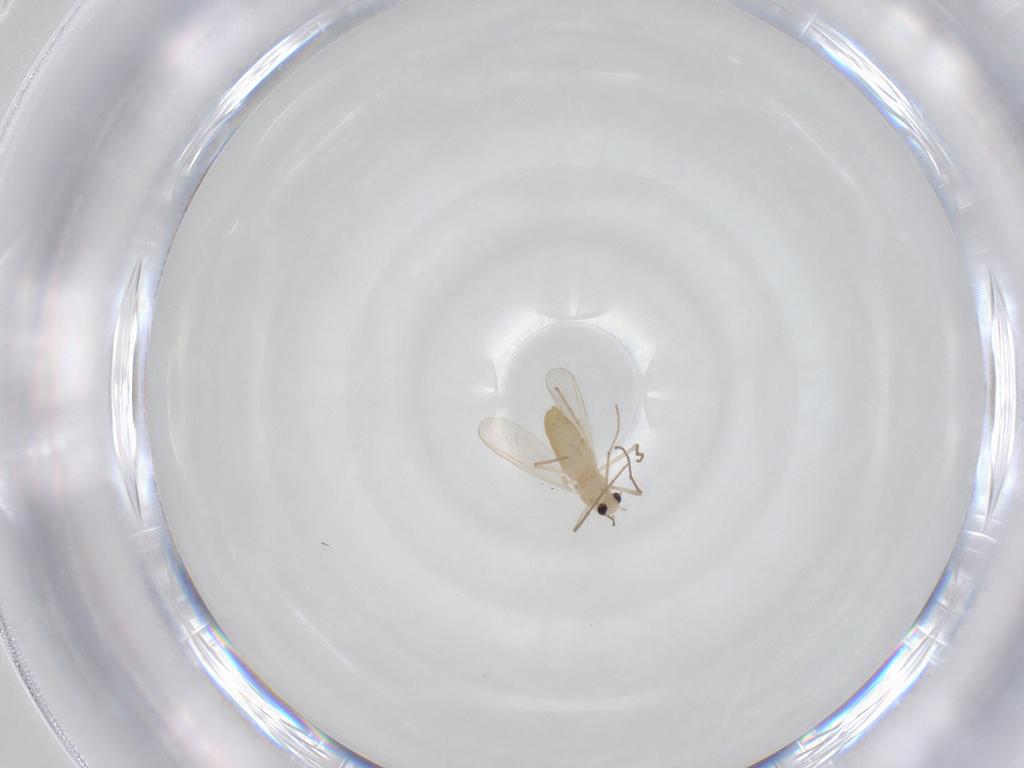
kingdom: Animalia
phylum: Arthropoda
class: Insecta
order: Diptera
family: Chironomidae
